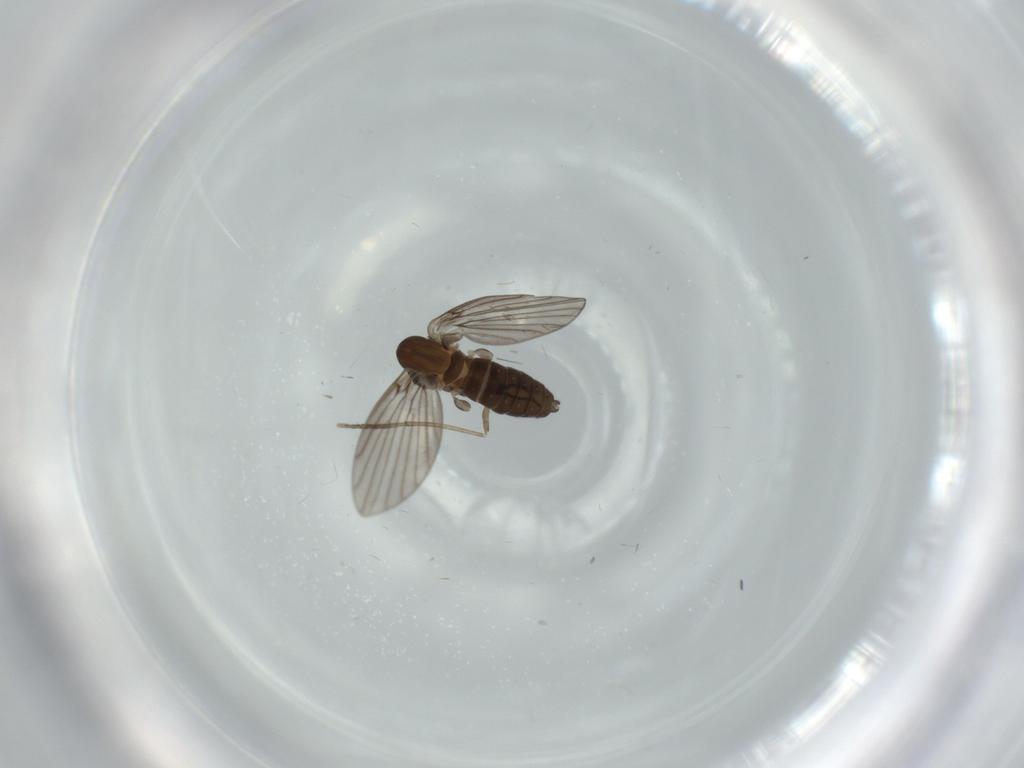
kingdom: Animalia
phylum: Arthropoda
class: Insecta
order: Diptera
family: Psychodidae
